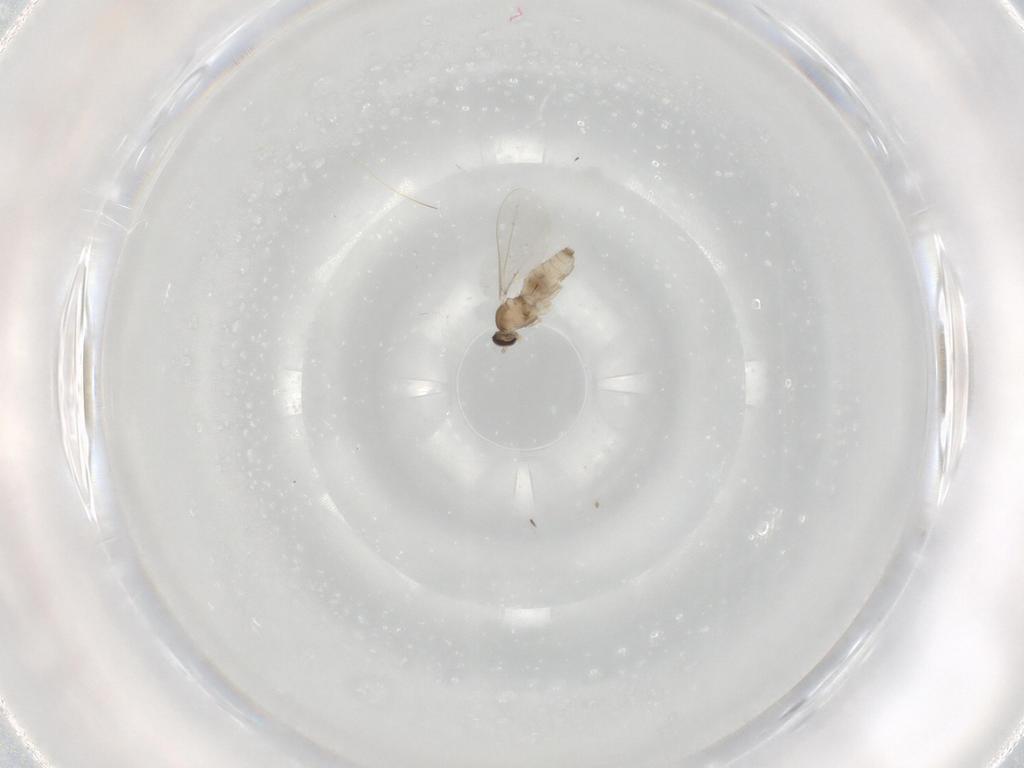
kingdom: Animalia
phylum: Arthropoda
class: Insecta
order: Diptera
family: Cecidomyiidae
